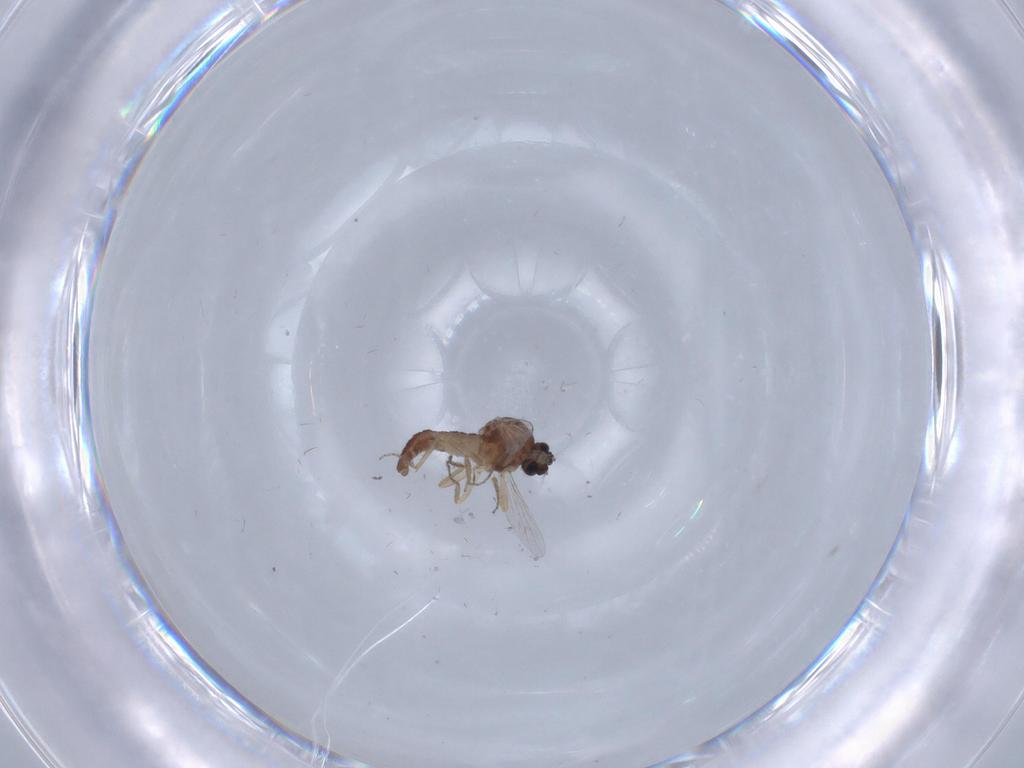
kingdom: Animalia
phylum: Arthropoda
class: Insecta
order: Diptera
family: Ceratopogonidae
